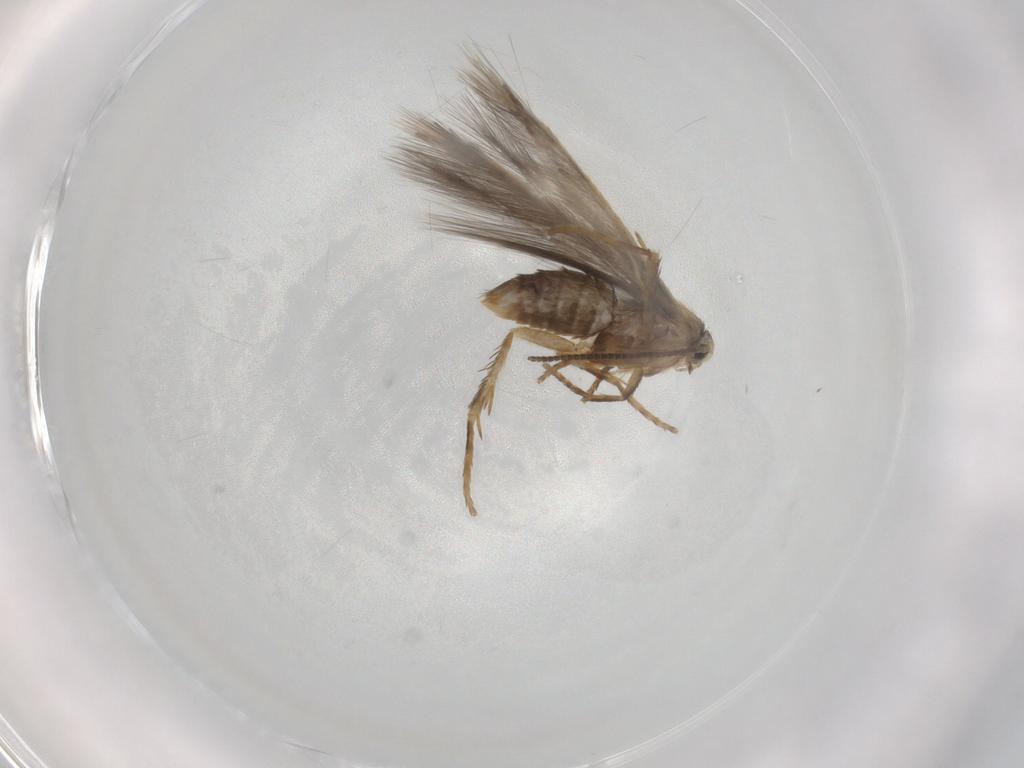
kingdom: Animalia
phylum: Arthropoda
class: Insecta
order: Lepidoptera
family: Nepticulidae
